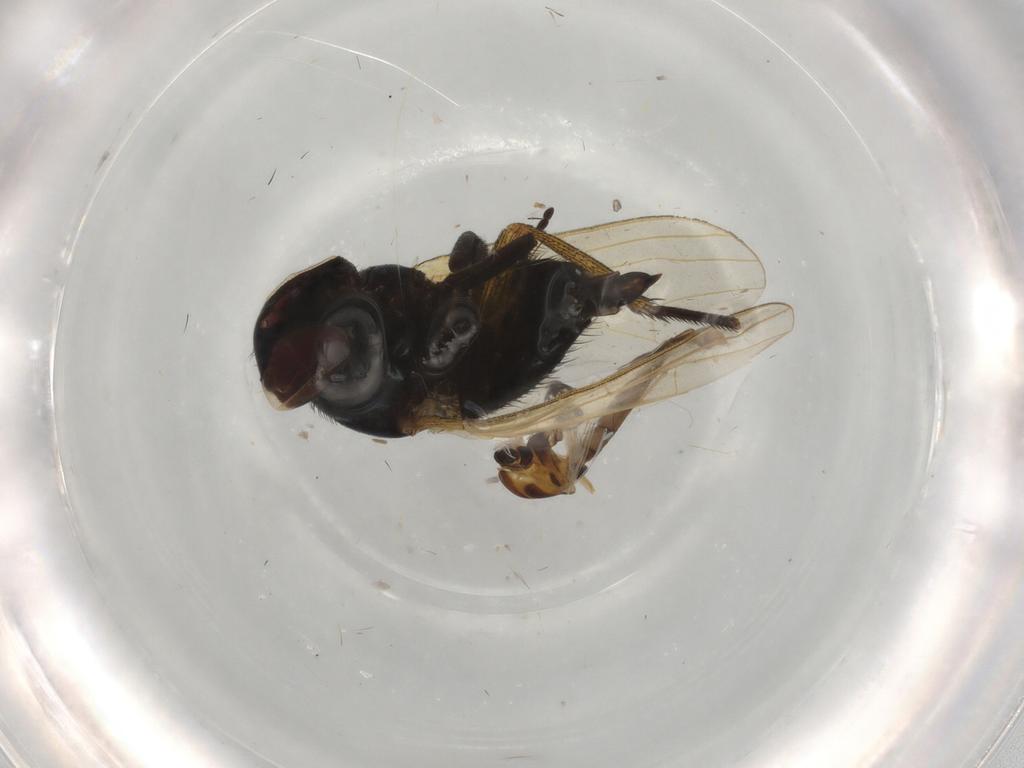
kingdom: Animalia
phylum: Arthropoda
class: Insecta
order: Diptera
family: Lonchaeidae
